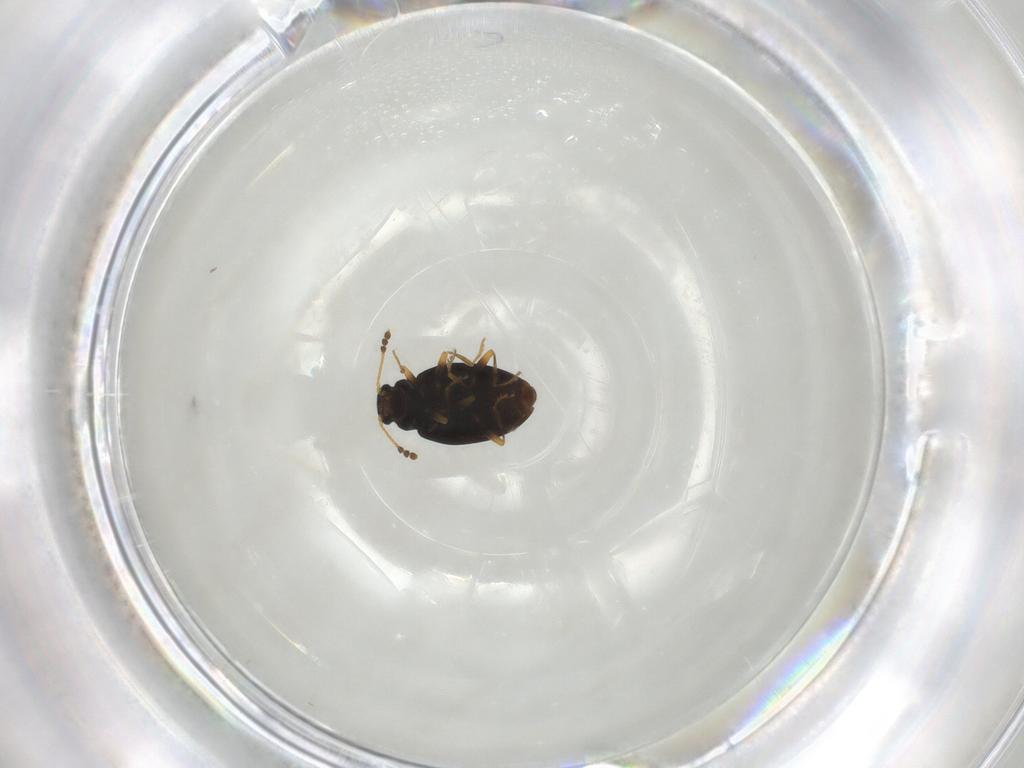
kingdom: Animalia
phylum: Arthropoda
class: Insecta
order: Coleoptera
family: Erotylidae
